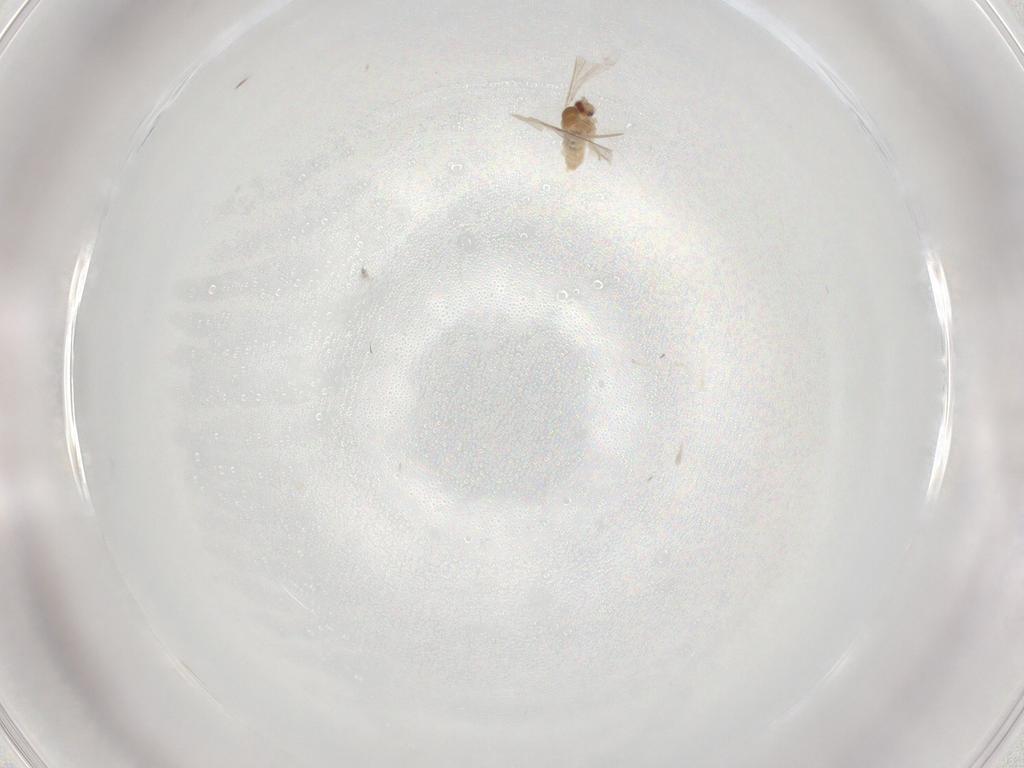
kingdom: Animalia
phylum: Arthropoda
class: Insecta
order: Diptera
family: Cecidomyiidae
